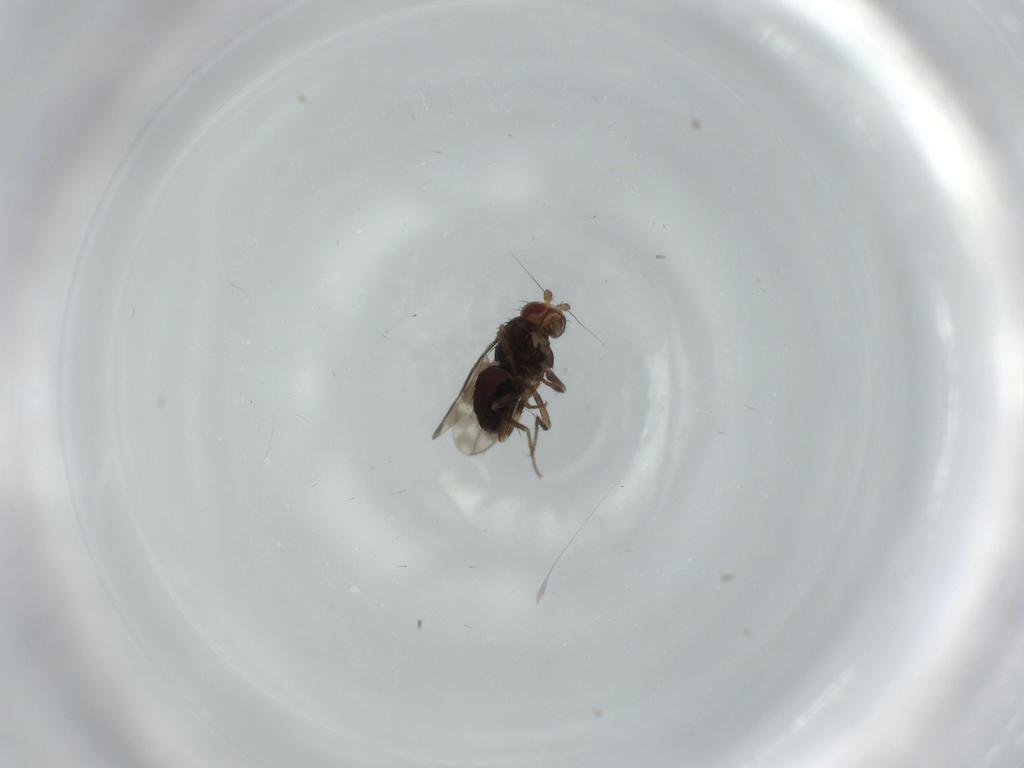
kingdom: Animalia
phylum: Arthropoda
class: Insecta
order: Diptera
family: Sphaeroceridae
